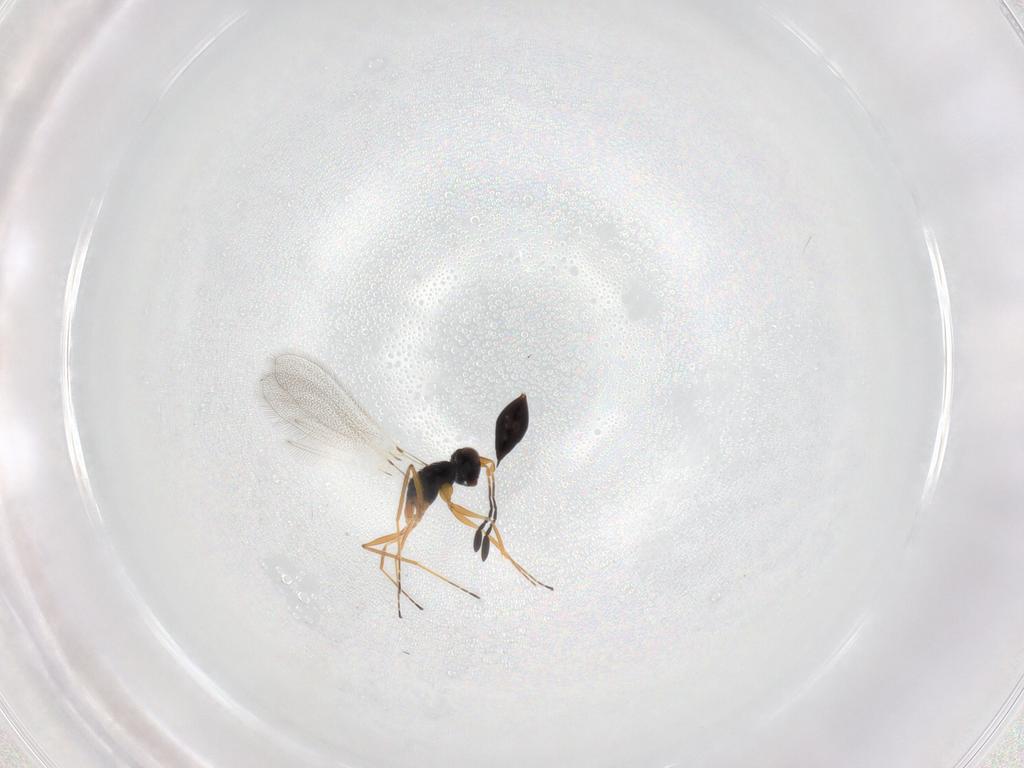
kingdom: Animalia
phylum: Arthropoda
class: Insecta
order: Hymenoptera
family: Mymaridae
